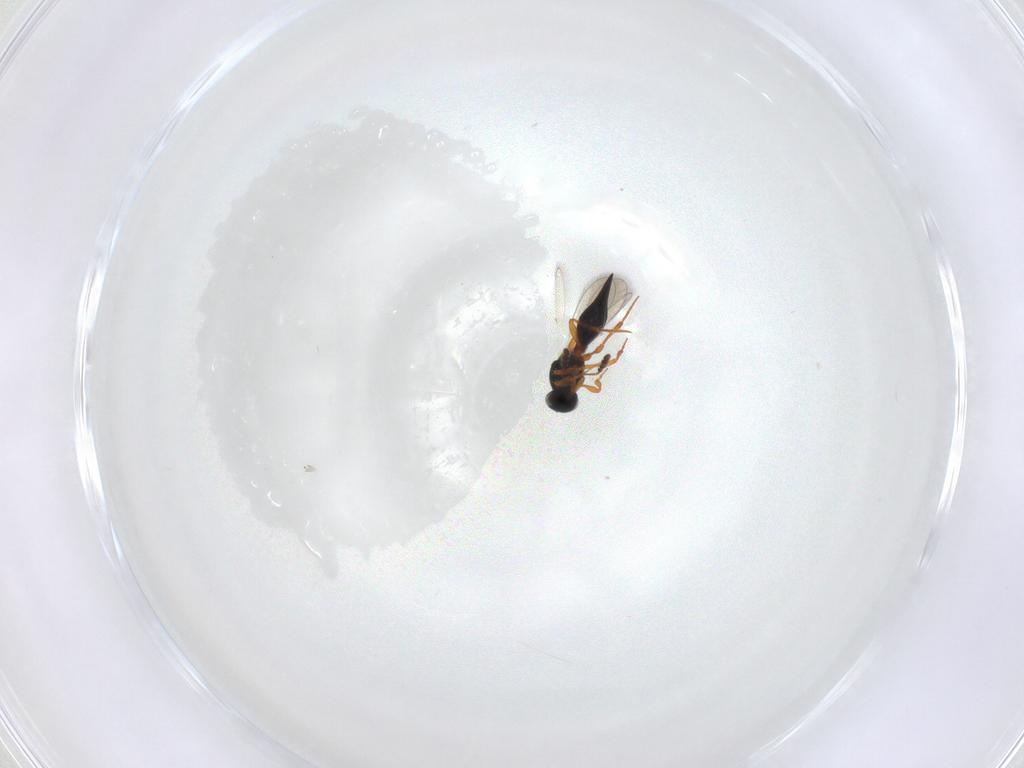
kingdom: Animalia
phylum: Arthropoda
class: Insecta
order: Hymenoptera
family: Platygastridae
